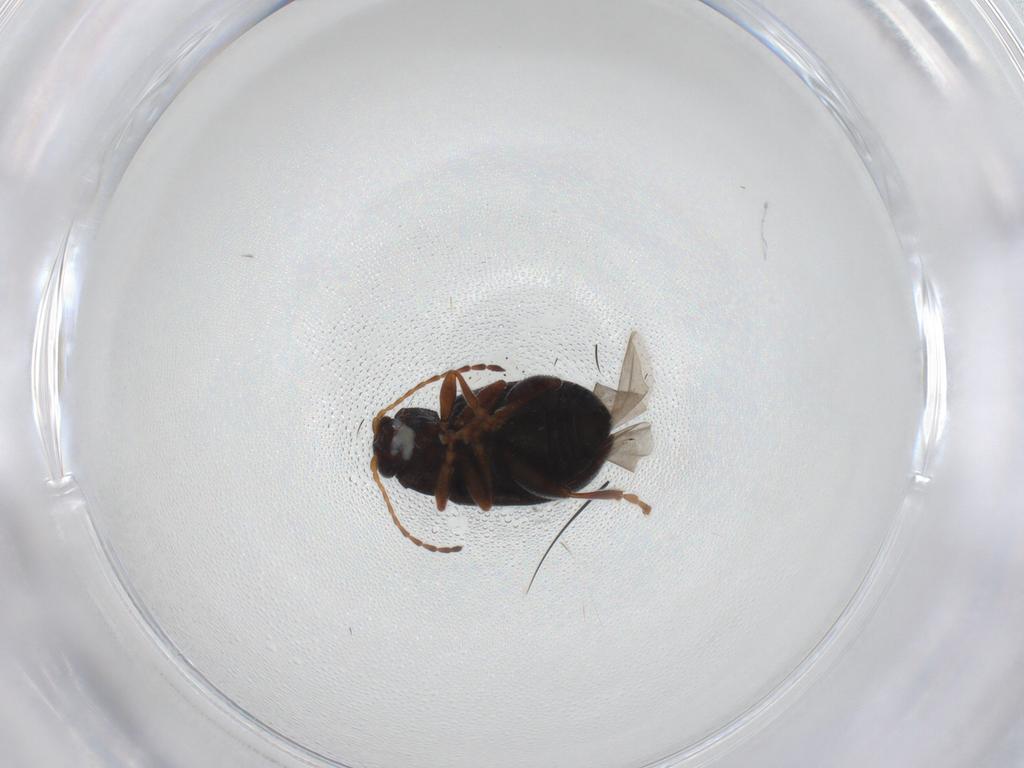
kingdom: Animalia
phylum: Arthropoda
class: Insecta
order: Coleoptera
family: Chrysomelidae
